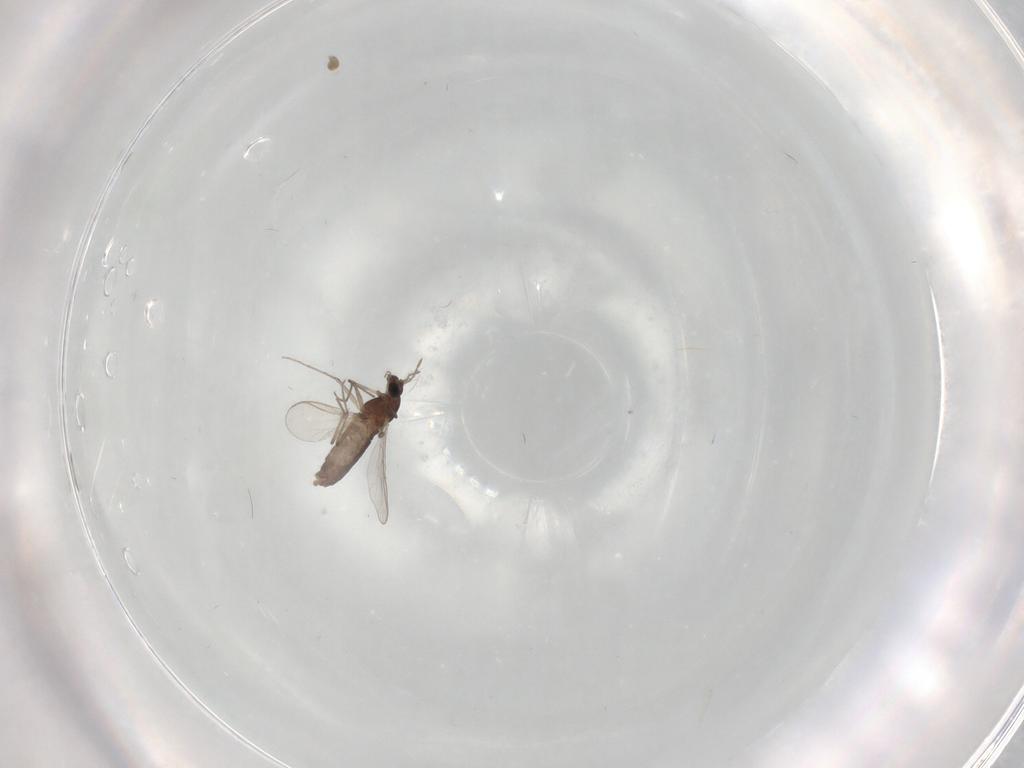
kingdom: Animalia
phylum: Arthropoda
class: Insecta
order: Diptera
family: Chironomidae
